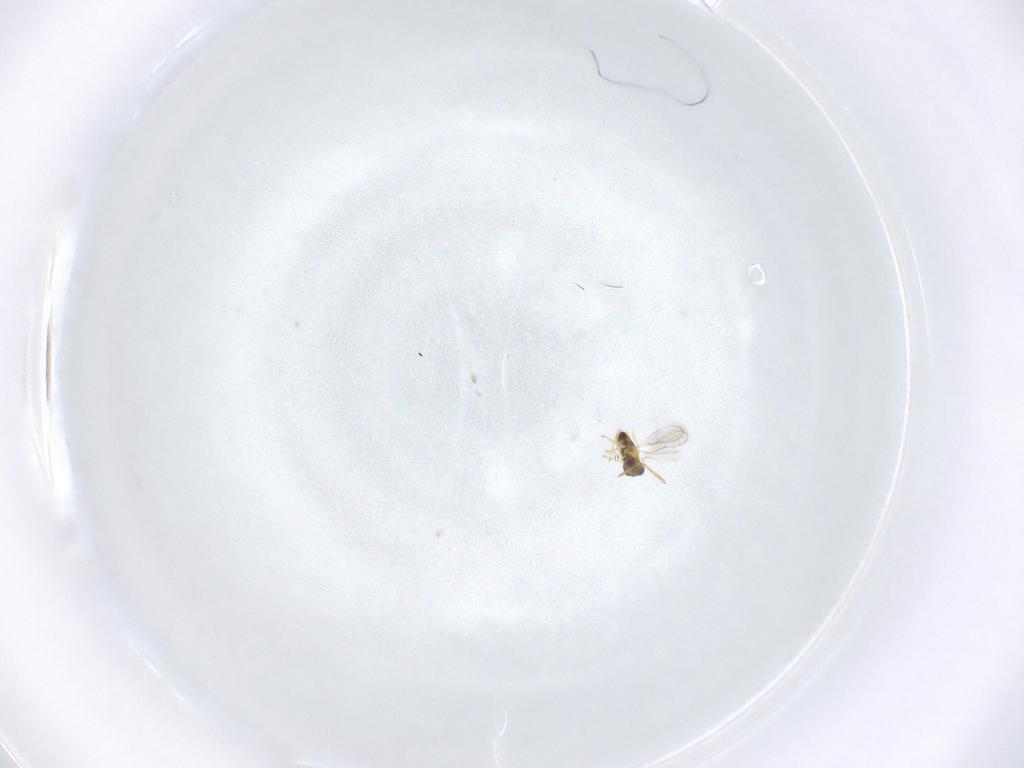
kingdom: Animalia
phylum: Arthropoda
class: Insecta
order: Hymenoptera
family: Aphelinidae
